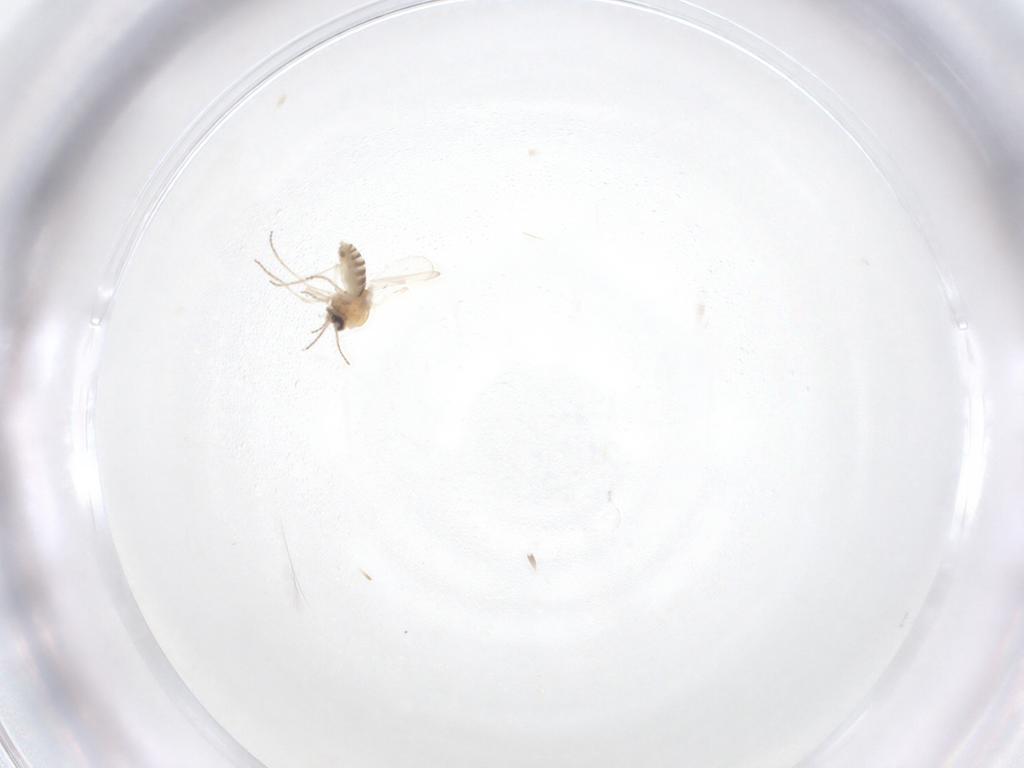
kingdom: Animalia
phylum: Arthropoda
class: Insecta
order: Diptera
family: Ceratopogonidae
